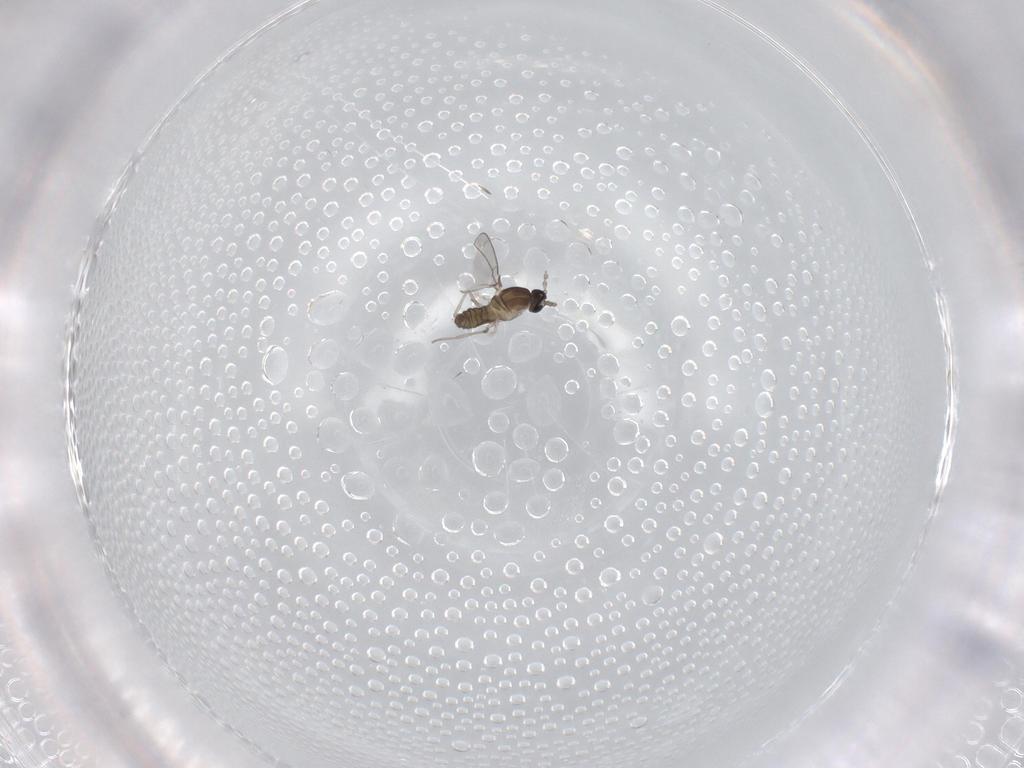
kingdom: Animalia
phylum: Arthropoda
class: Insecta
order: Diptera
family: Cecidomyiidae
